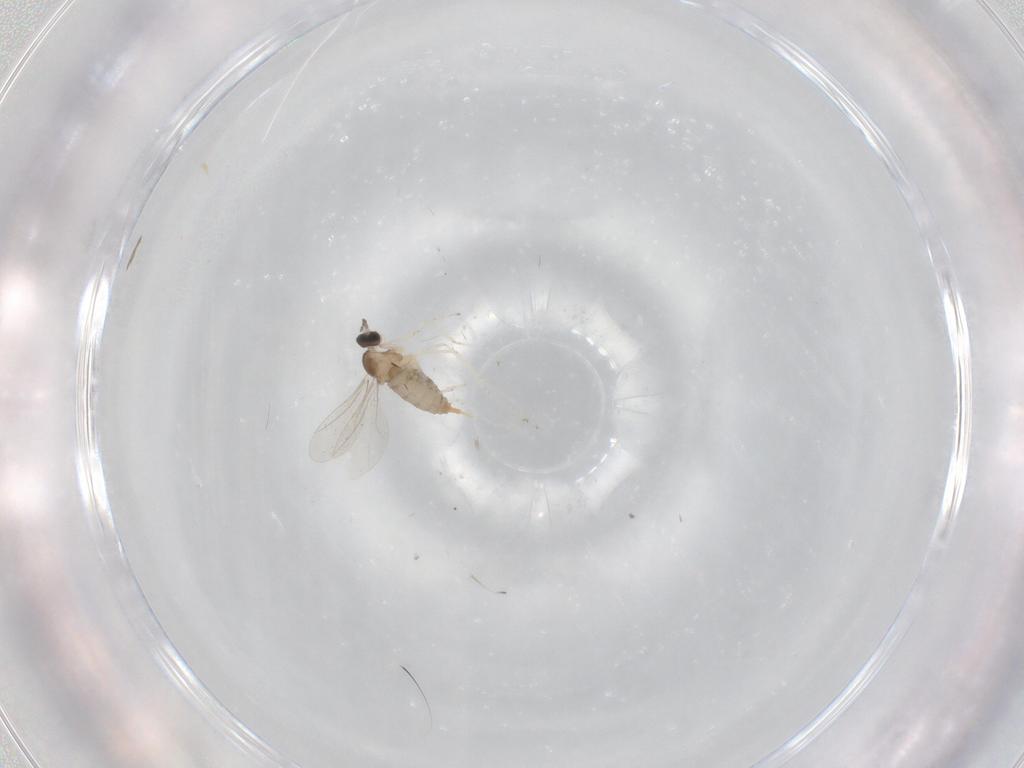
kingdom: Animalia
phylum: Arthropoda
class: Insecta
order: Diptera
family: Cecidomyiidae
